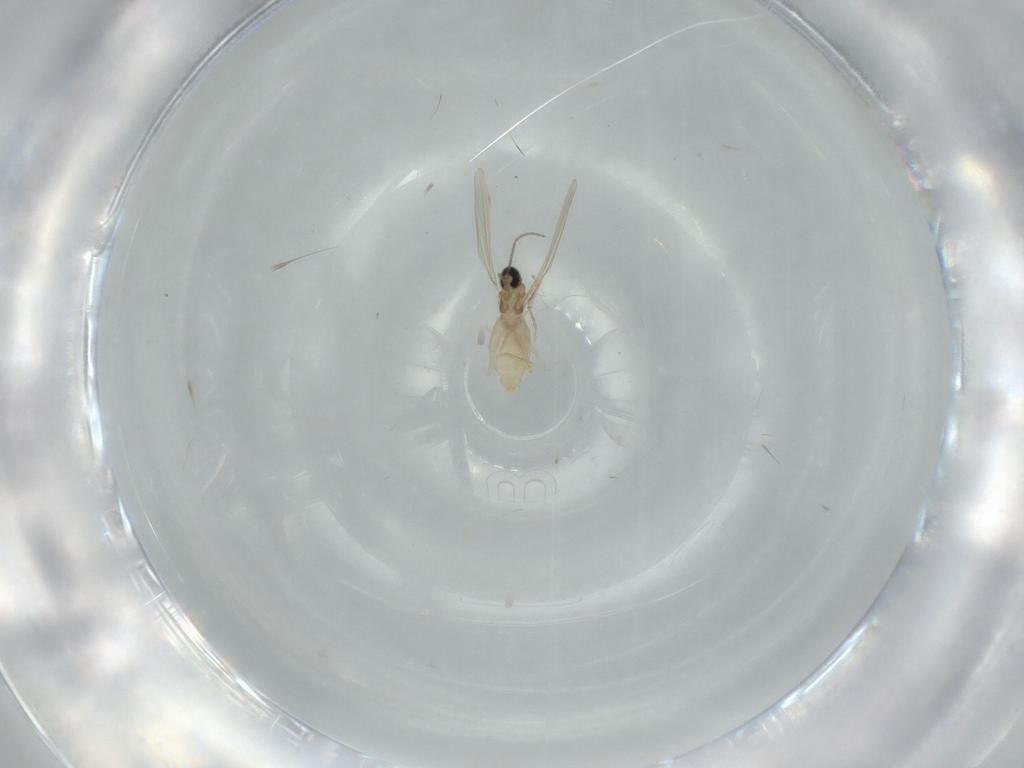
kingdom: Animalia
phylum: Arthropoda
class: Insecta
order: Diptera
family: Cecidomyiidae
